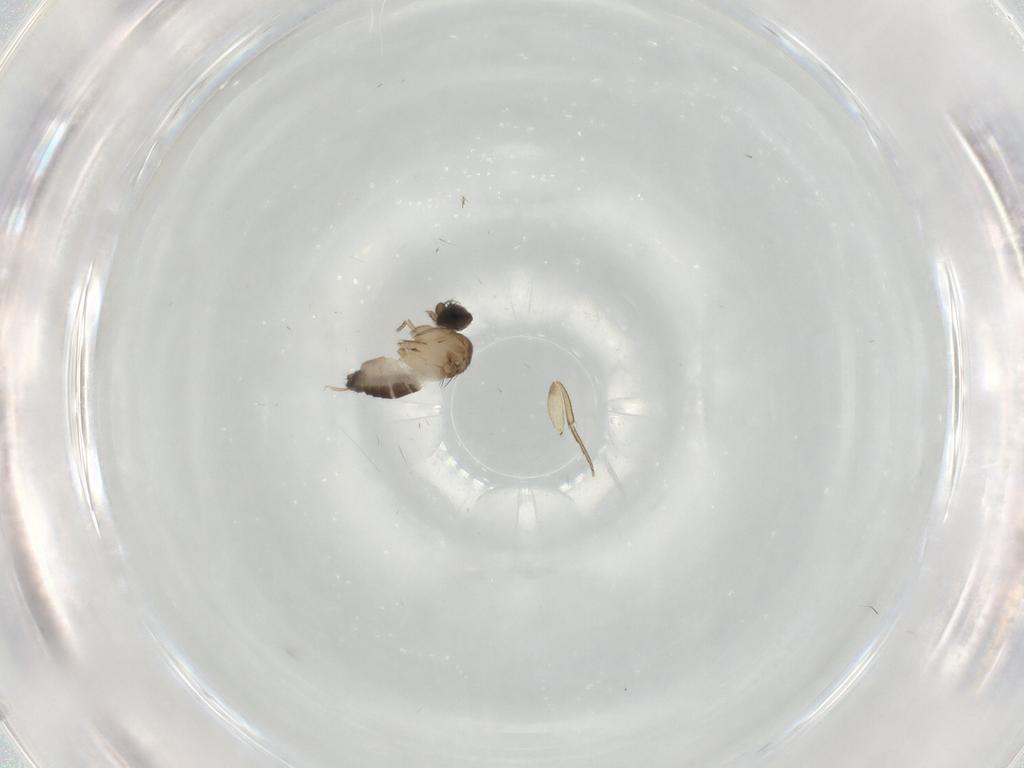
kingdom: Animalia
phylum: Arthropoda
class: Insecta
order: Diptera
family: Phoridae
